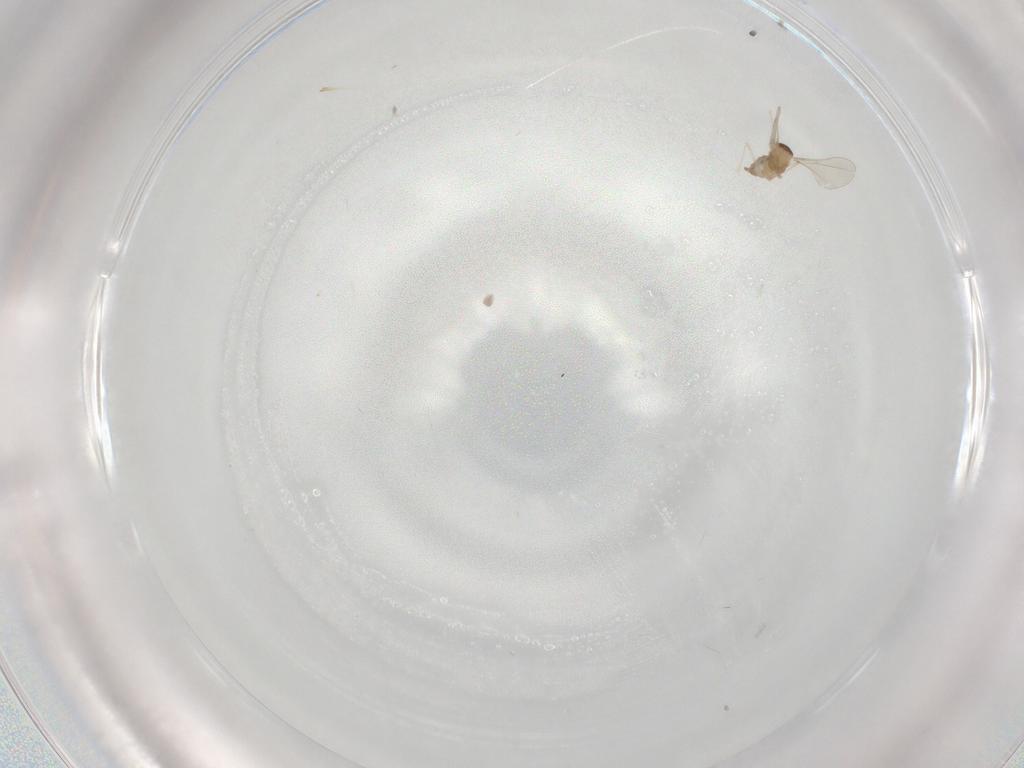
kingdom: Animalia
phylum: Arthropoda
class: Insecta
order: Diptera
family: Cecidomyiidae
